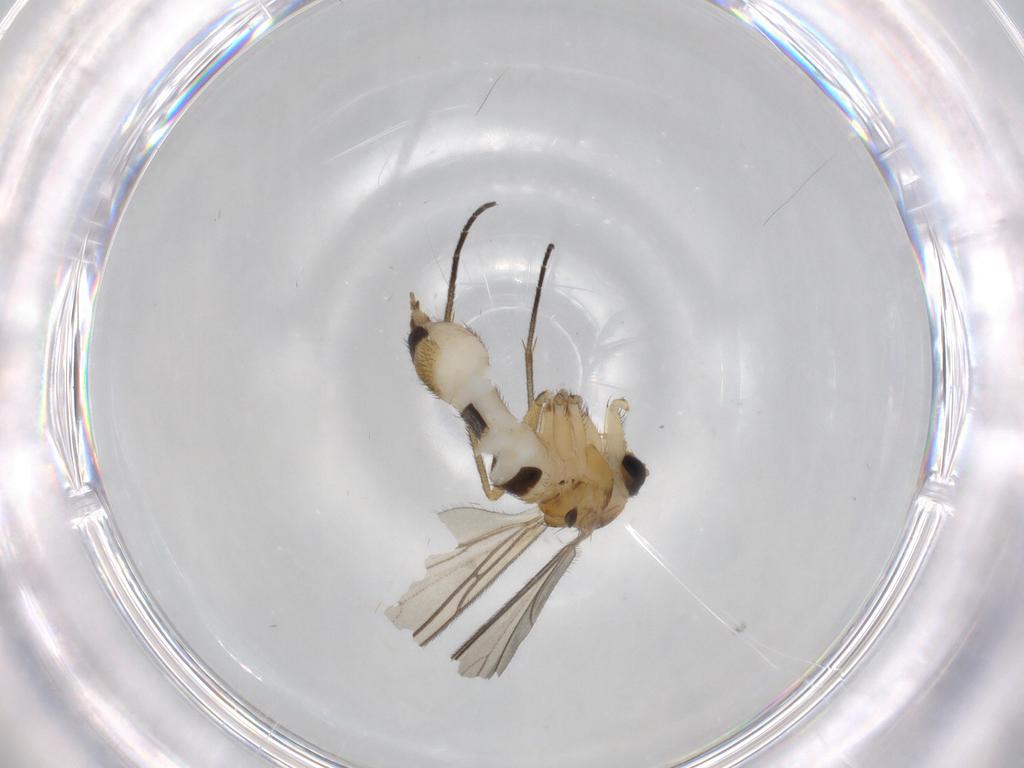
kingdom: Animalia
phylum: Arthropoda
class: Insecta
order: Diptera
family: Sciaridae
